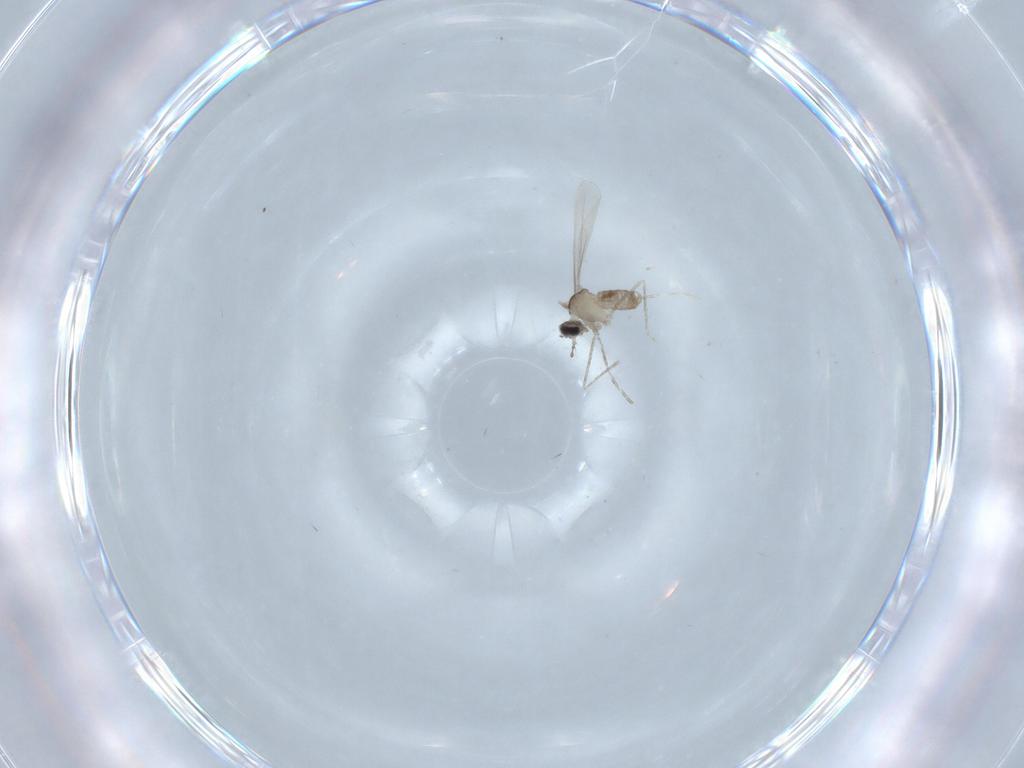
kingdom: Animalia
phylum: Arthropoda
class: Insecta
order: Diptera
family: Cecidomyiidae
